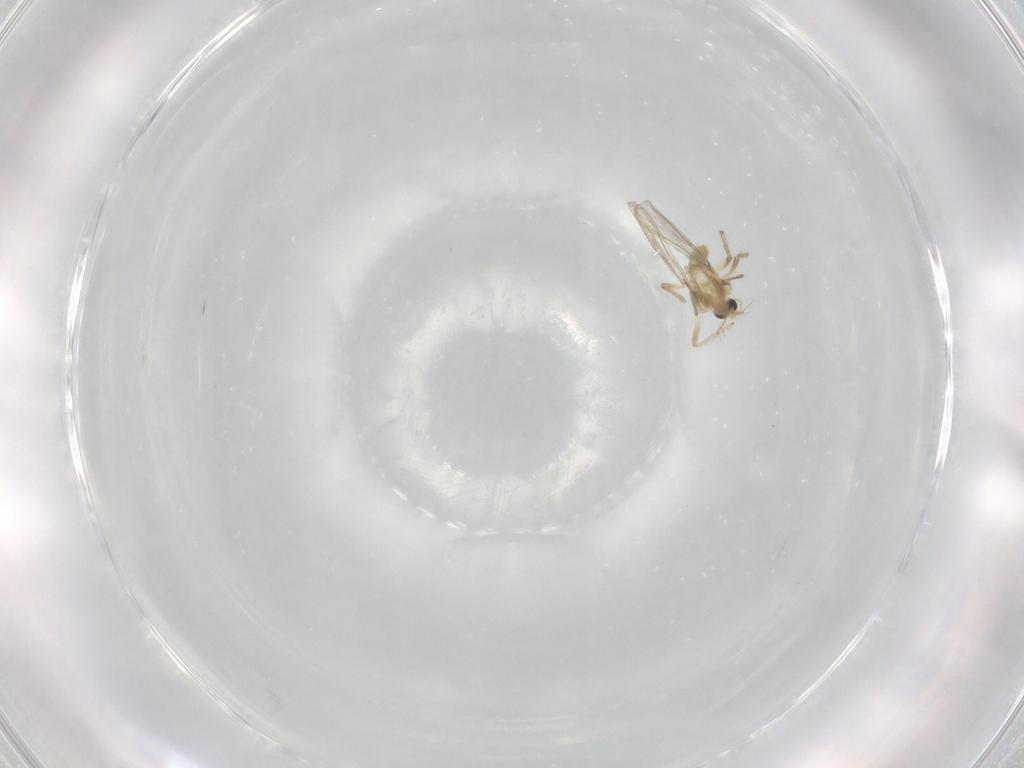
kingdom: Animalia
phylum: Arthropoda
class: Insecta
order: Diptera
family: Chironomidae
